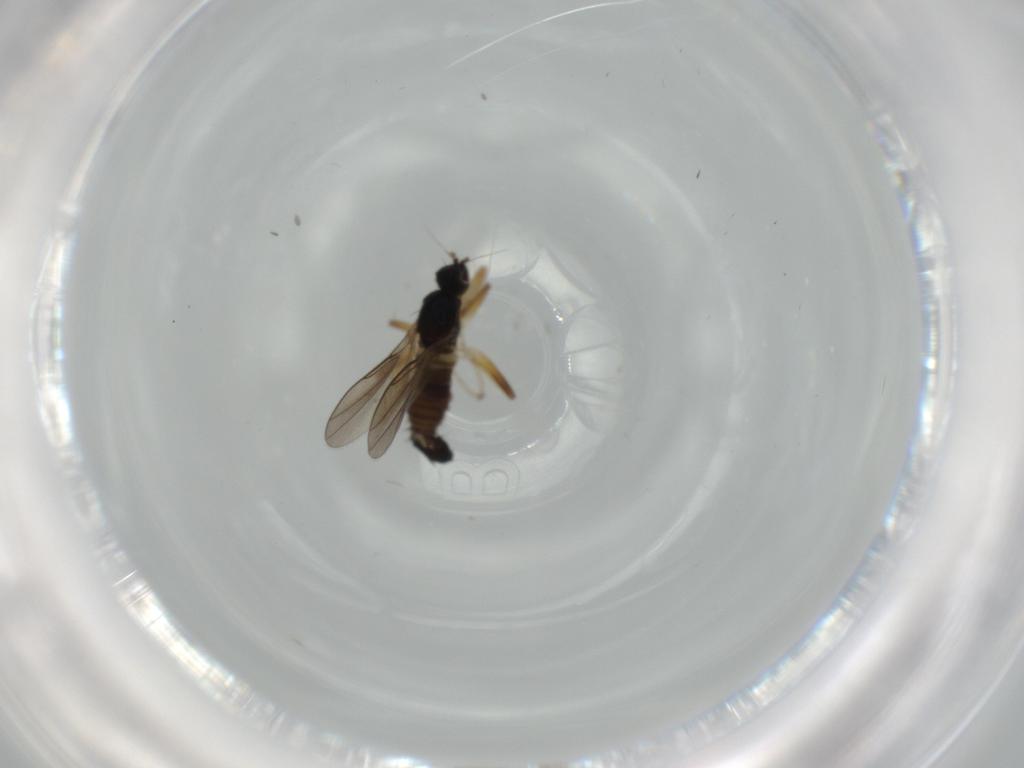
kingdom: Animalia
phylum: Arthropoda
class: Insecta
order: Diptera
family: Hybotidae
